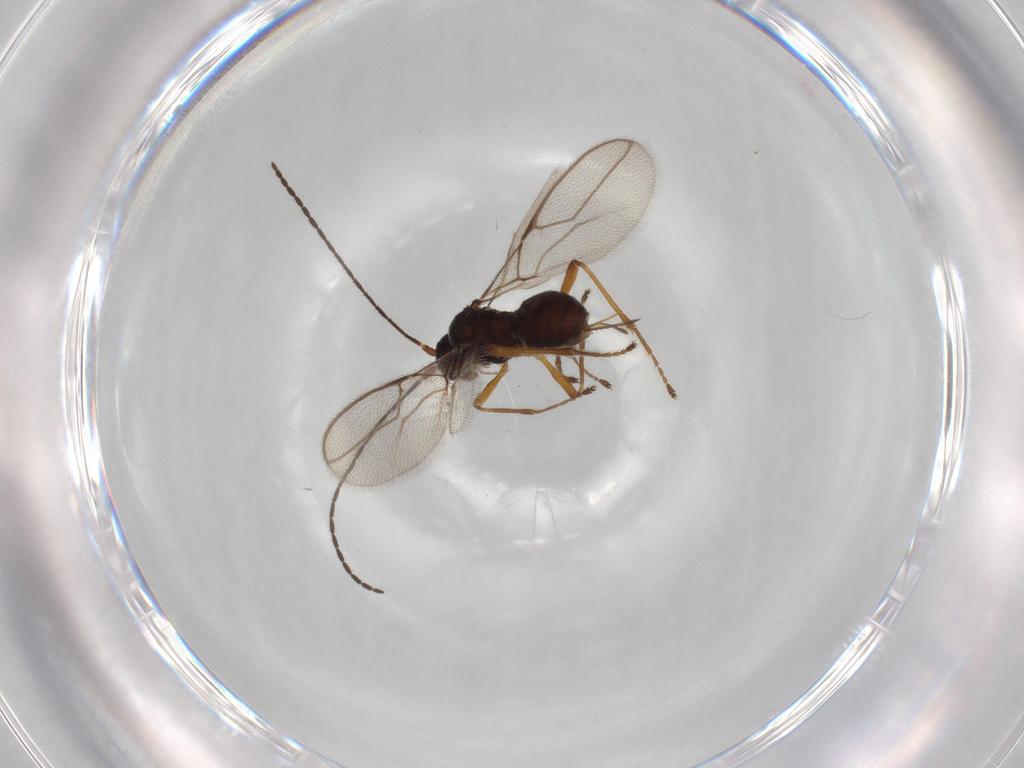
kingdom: Animalia
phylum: Arthropoda
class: Insecta
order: Hymenoptera
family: Braconidae
